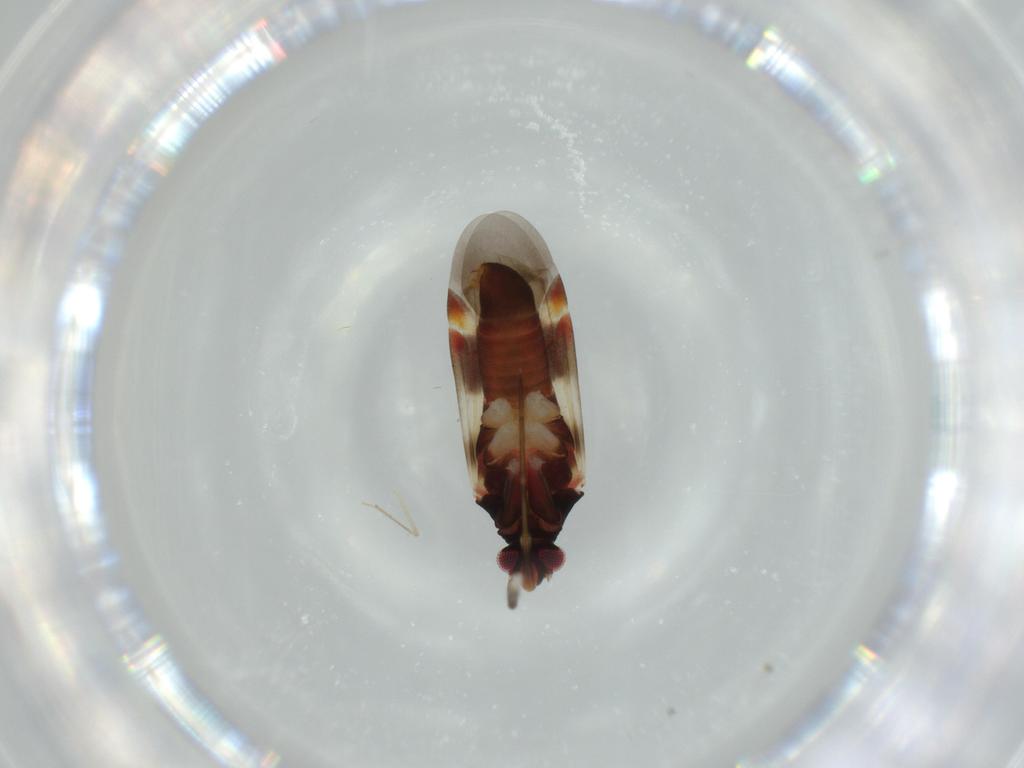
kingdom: Animalia
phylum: Arthropoda
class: Insecta
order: Hemiptera
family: Miridae
